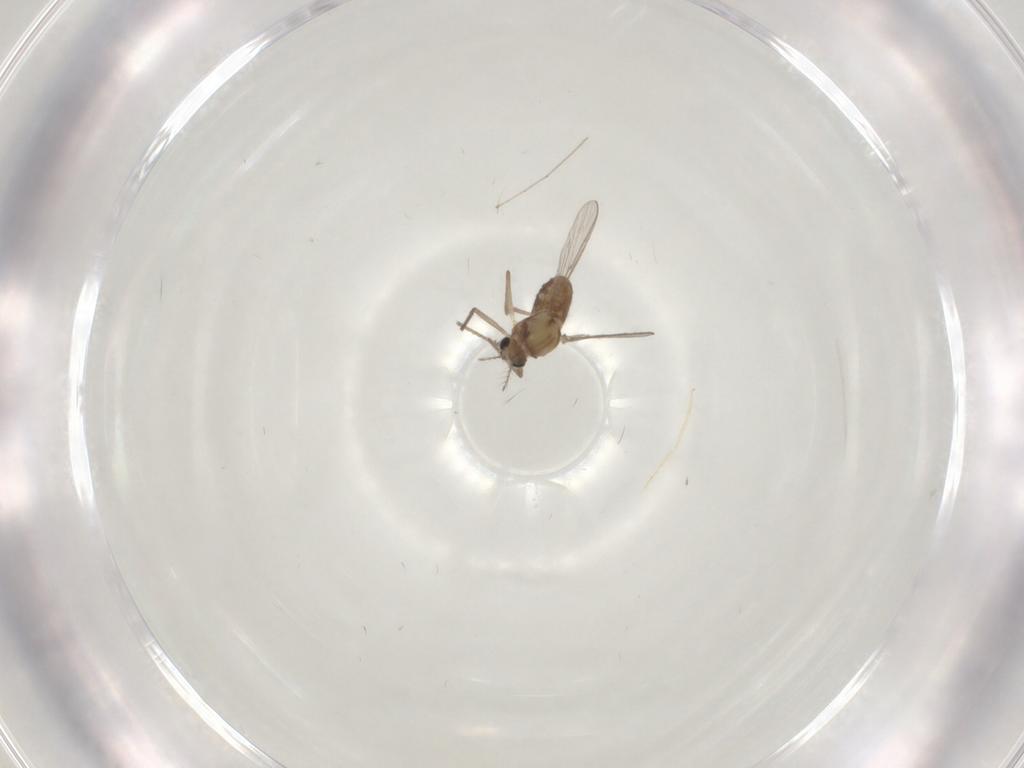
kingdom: Animalia
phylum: Arthropoda
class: Insecta
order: Diptera
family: Chironomidae
